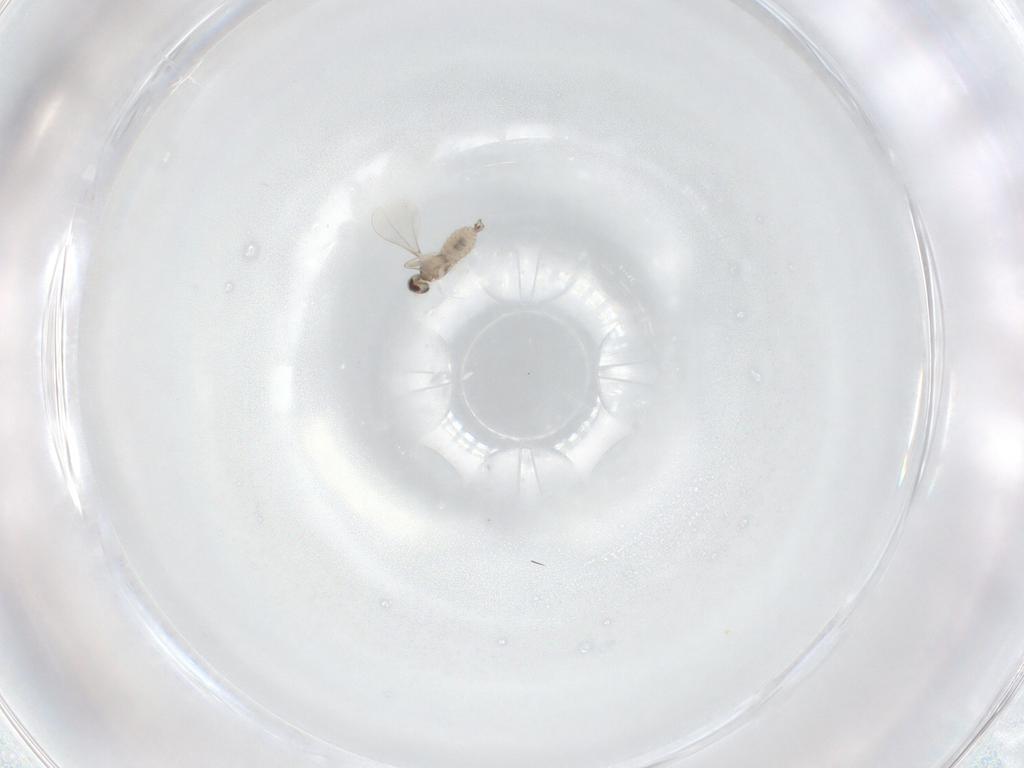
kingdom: Animalia
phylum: Arthropoda
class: Insecta
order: Diptera
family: Cecidomyiidae
